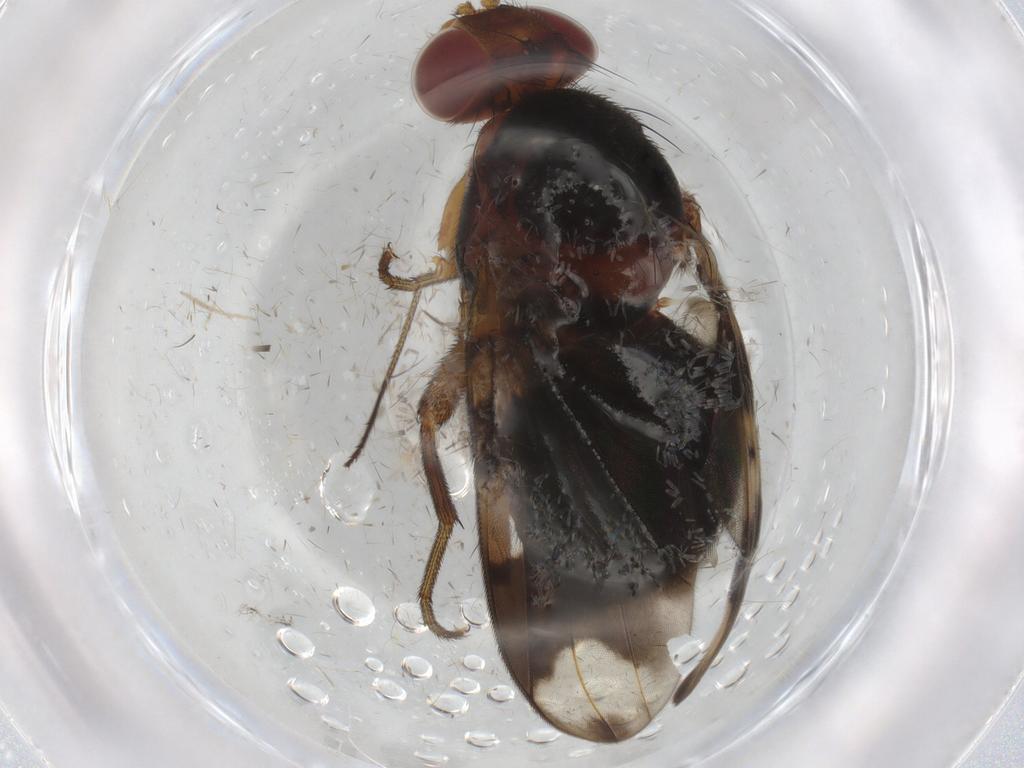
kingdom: Animalia
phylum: Arthropoda
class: Insecta
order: Diptera
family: Richardiidae
